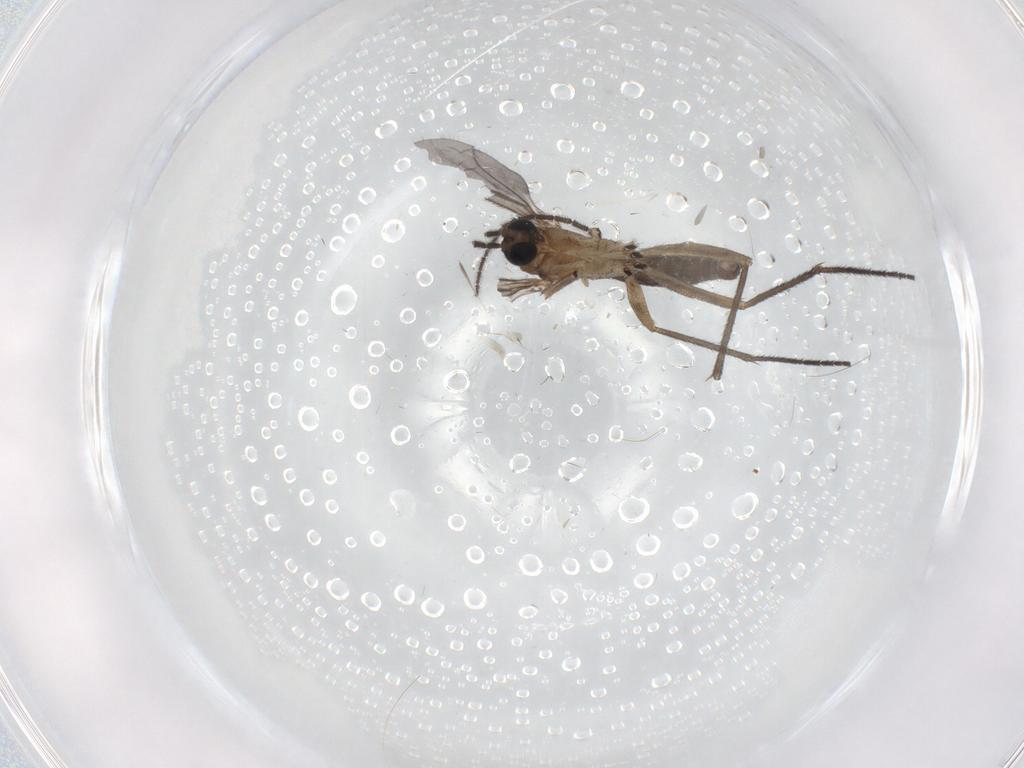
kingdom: Animalia
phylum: Arthropoda
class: Insecta
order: Diptera
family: Sciaridae
